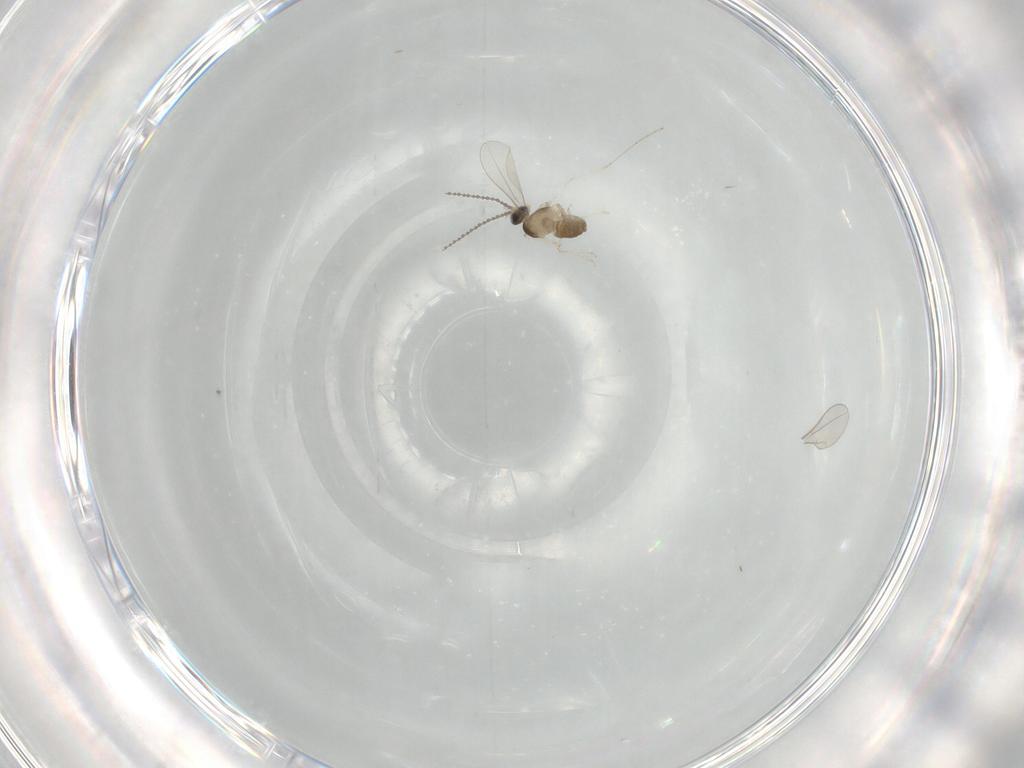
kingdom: Animalia
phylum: Arthropoda
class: Insecta
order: Diptera
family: Cecidomyiidae
